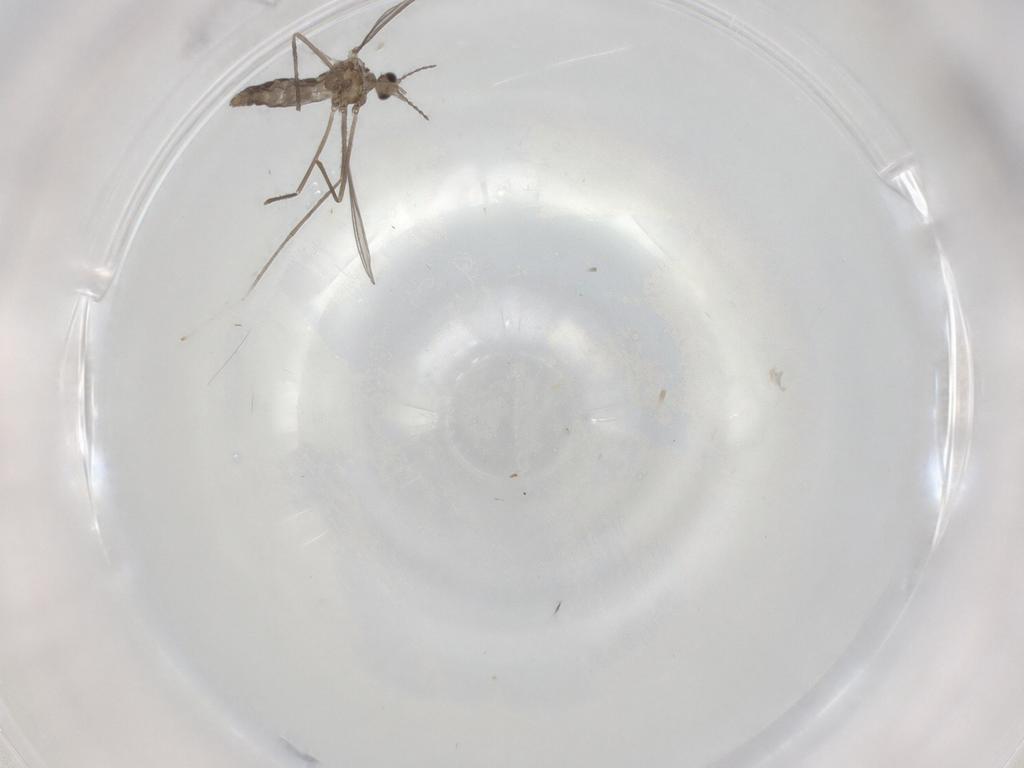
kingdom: Animalia
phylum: Arthropoda
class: Insecta
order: Diptera
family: Cecidomyiidae
